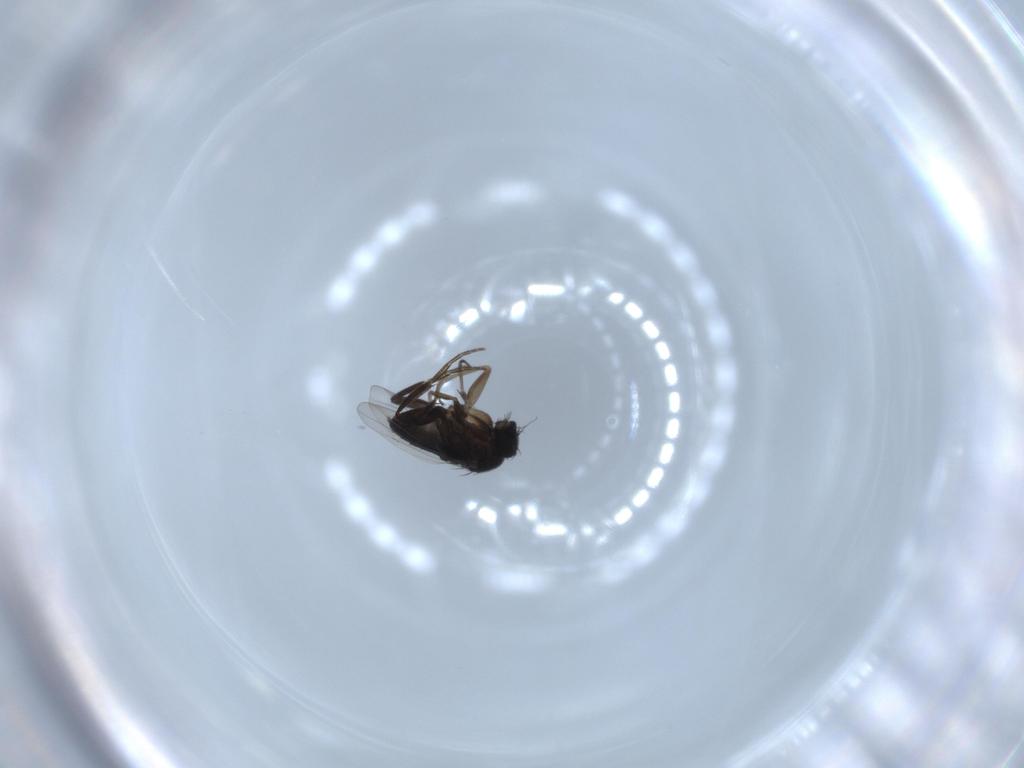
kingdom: Animalia
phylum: Arthropoda
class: Insecta
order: Diptera
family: Phoridae
